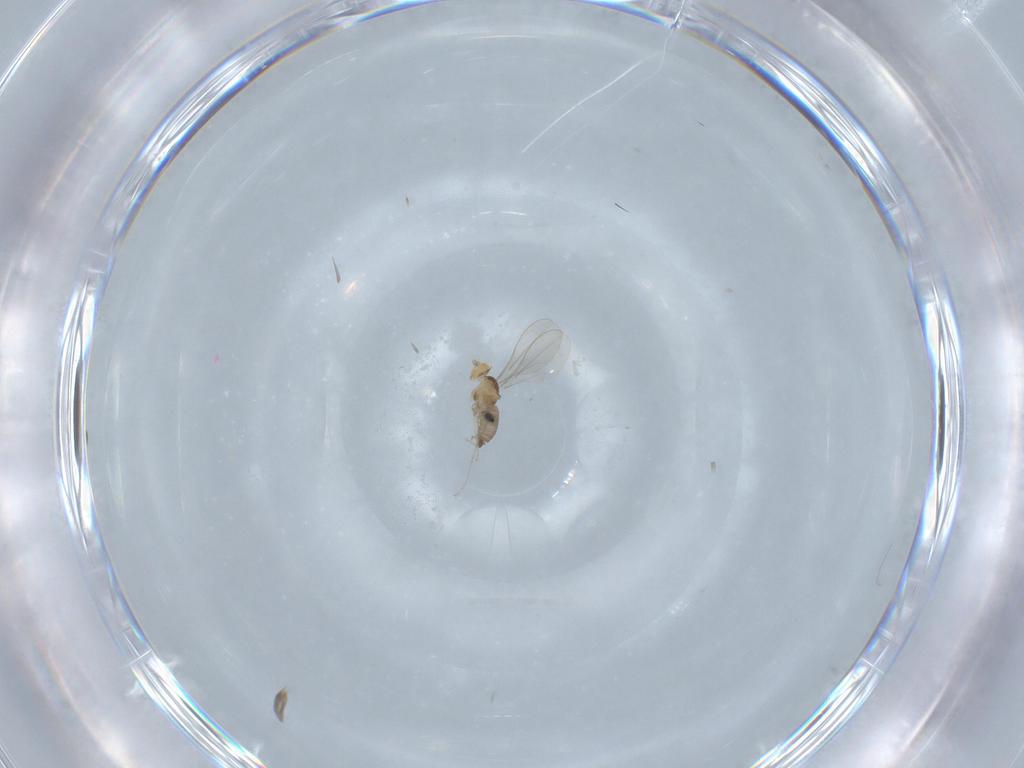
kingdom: Animalia
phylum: Arthropoda
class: Insecta
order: Diptera
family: Cecidomyiidae
